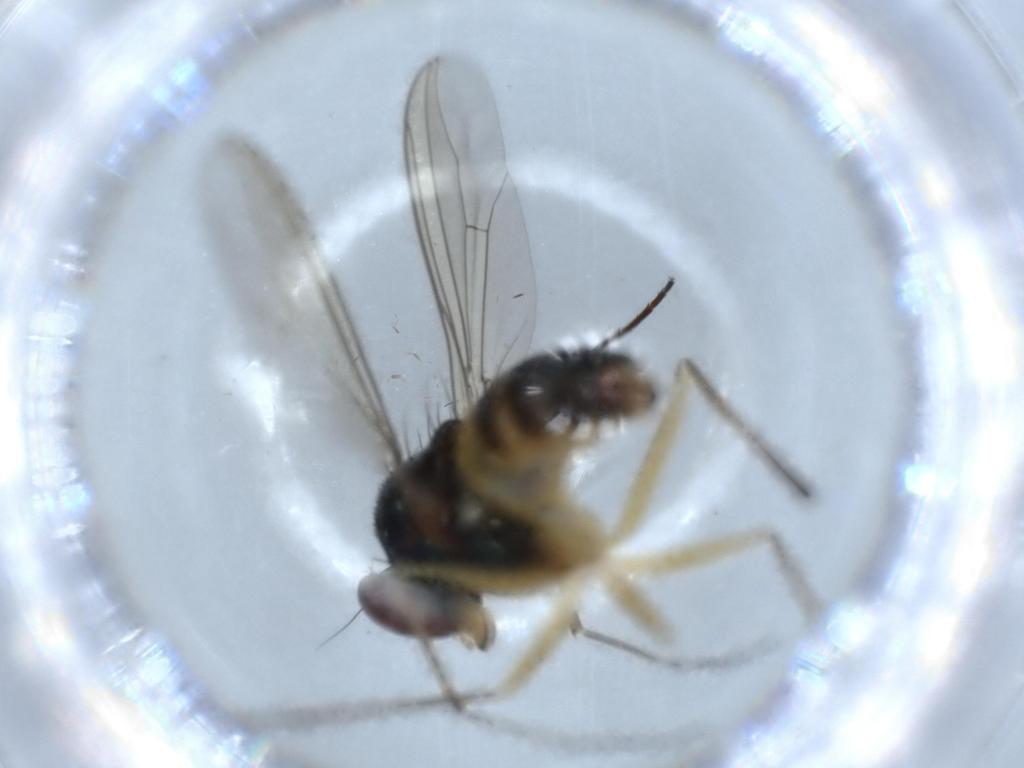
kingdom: Animalia
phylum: Arthropoda
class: Insecta
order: Diptera
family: Dolichopodidae
